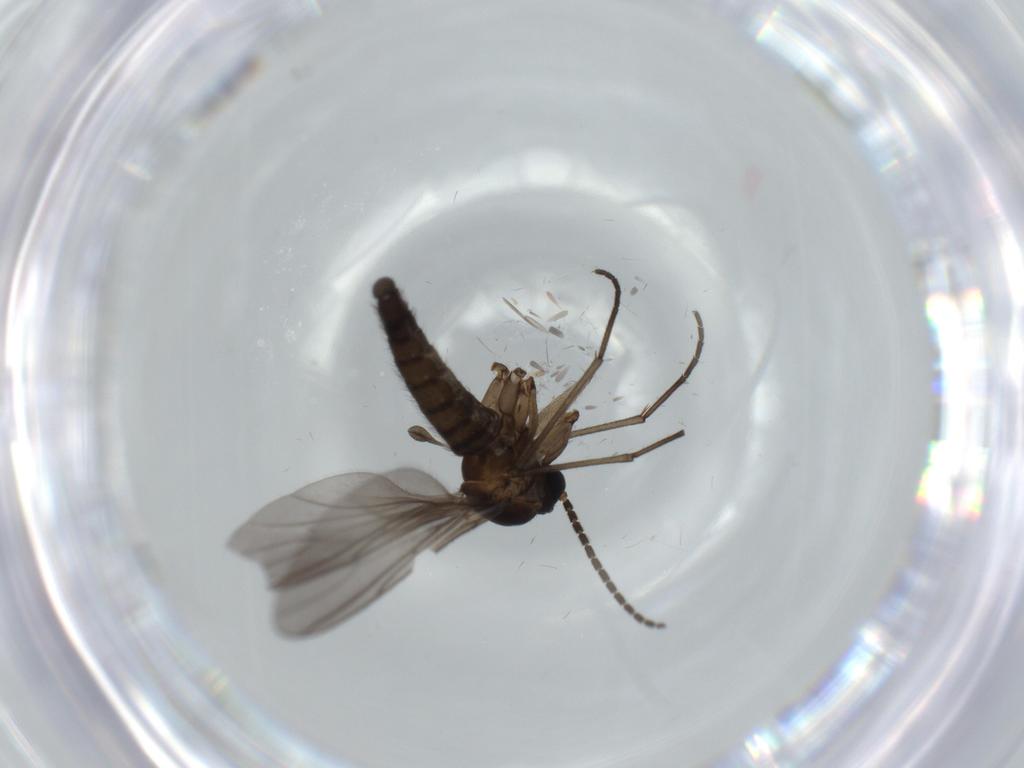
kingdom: Animalia
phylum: Arthropoda
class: Insecta
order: Diptera
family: Sciaridae
